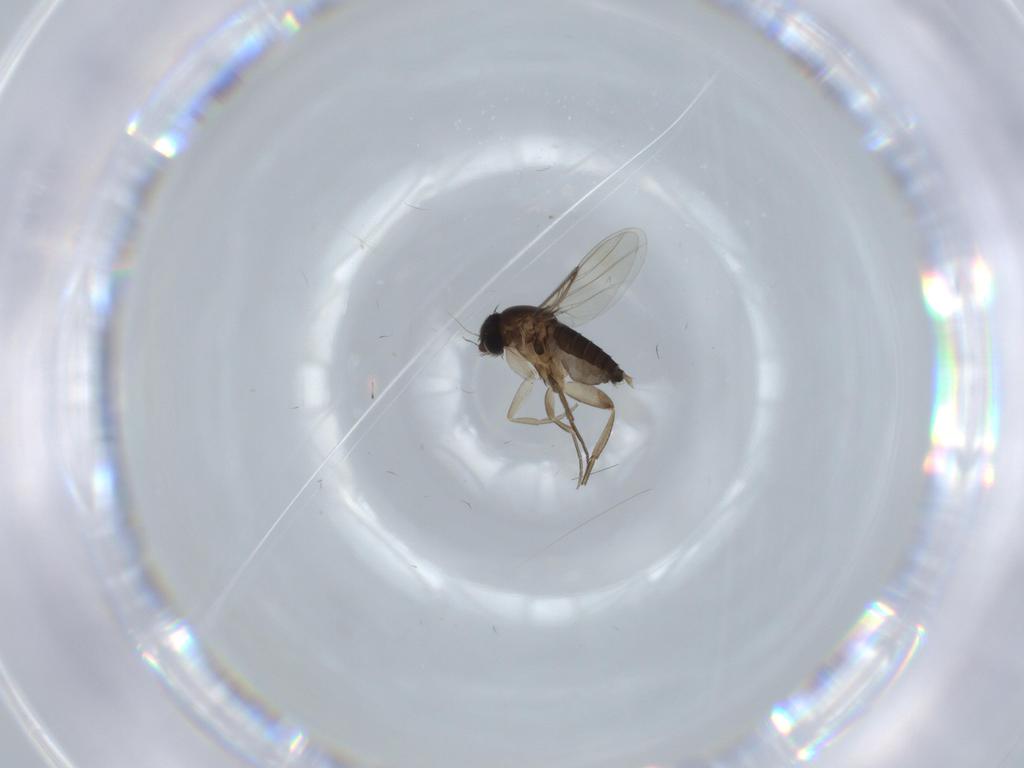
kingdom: Animalia
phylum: Arthropoda
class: Insecta
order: Diptera
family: Phoridae
